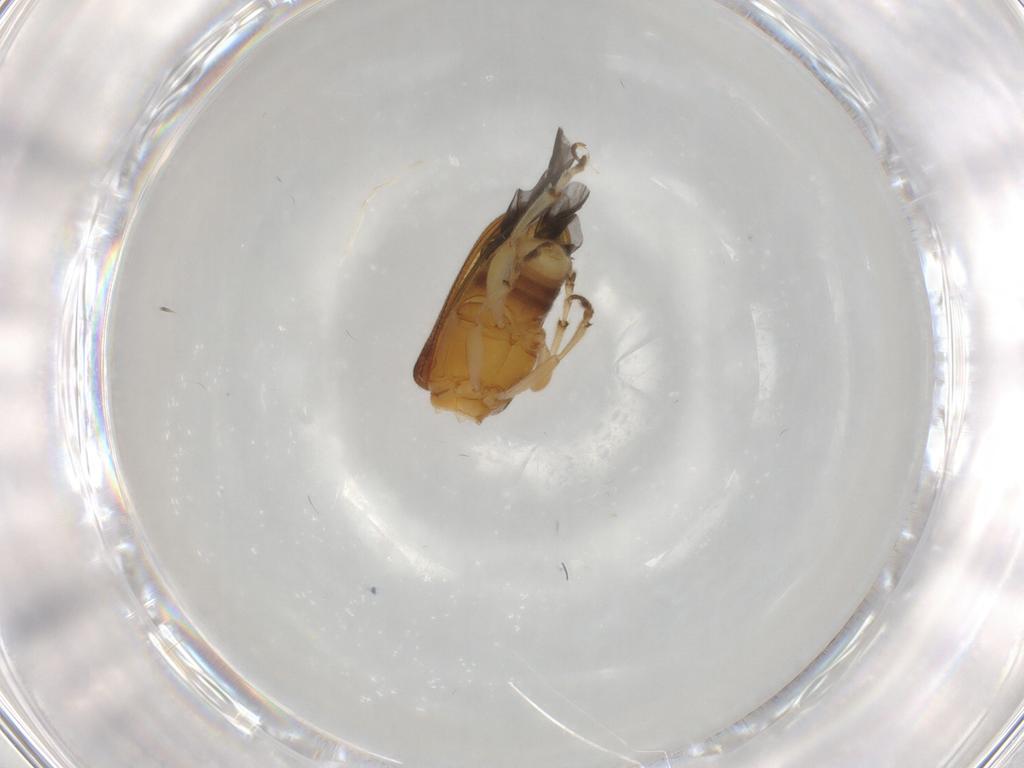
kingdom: Animalia
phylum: Arthropoda
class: Insecta
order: Coleoptera
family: Chrysomelidae
